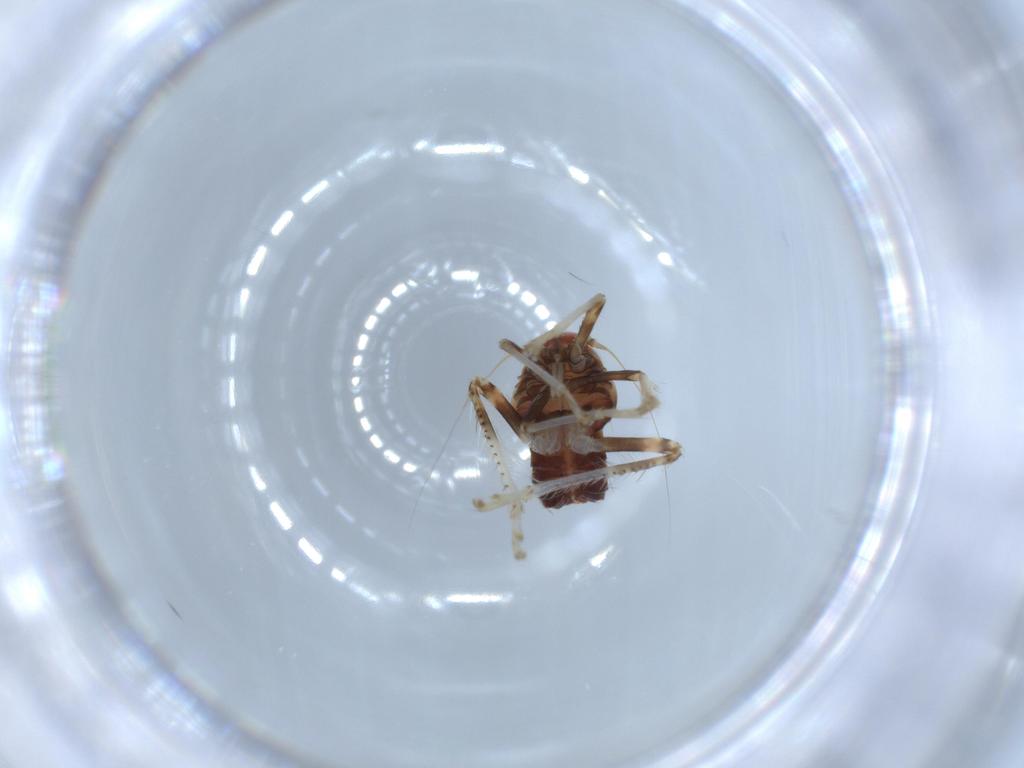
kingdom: Animalia
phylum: Arthropoda
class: Insecta
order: Hemiptera
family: Cicadellidae
